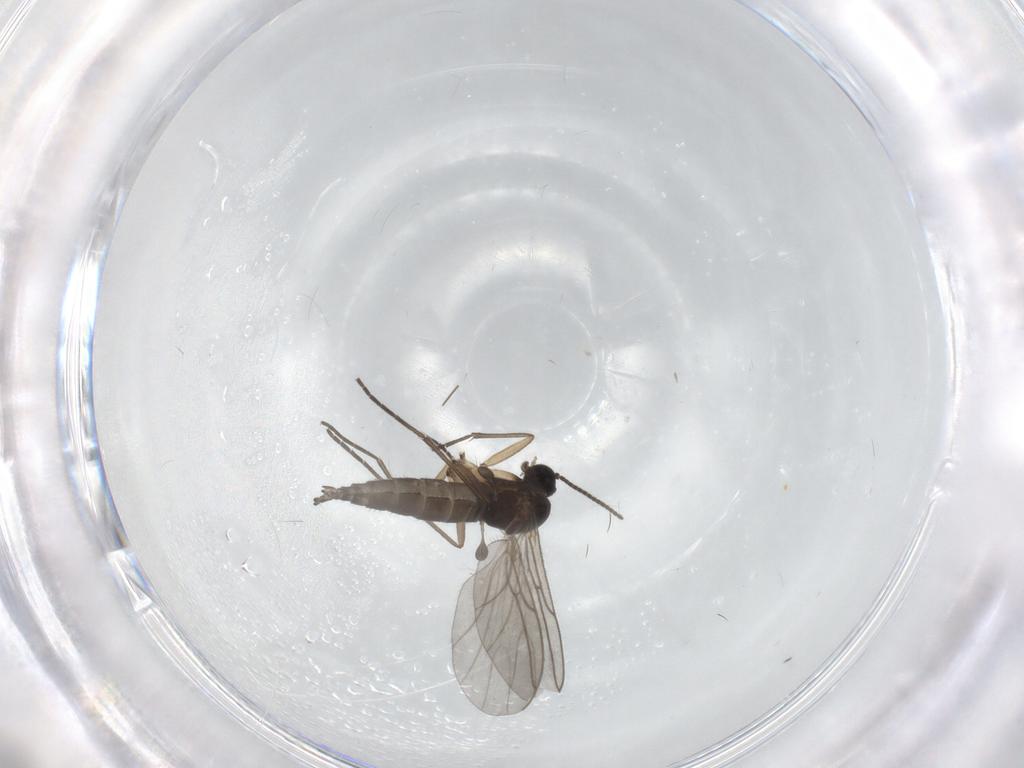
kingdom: Animalia
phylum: Arthropoda
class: Insecta
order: Diptera
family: Sciaridae
